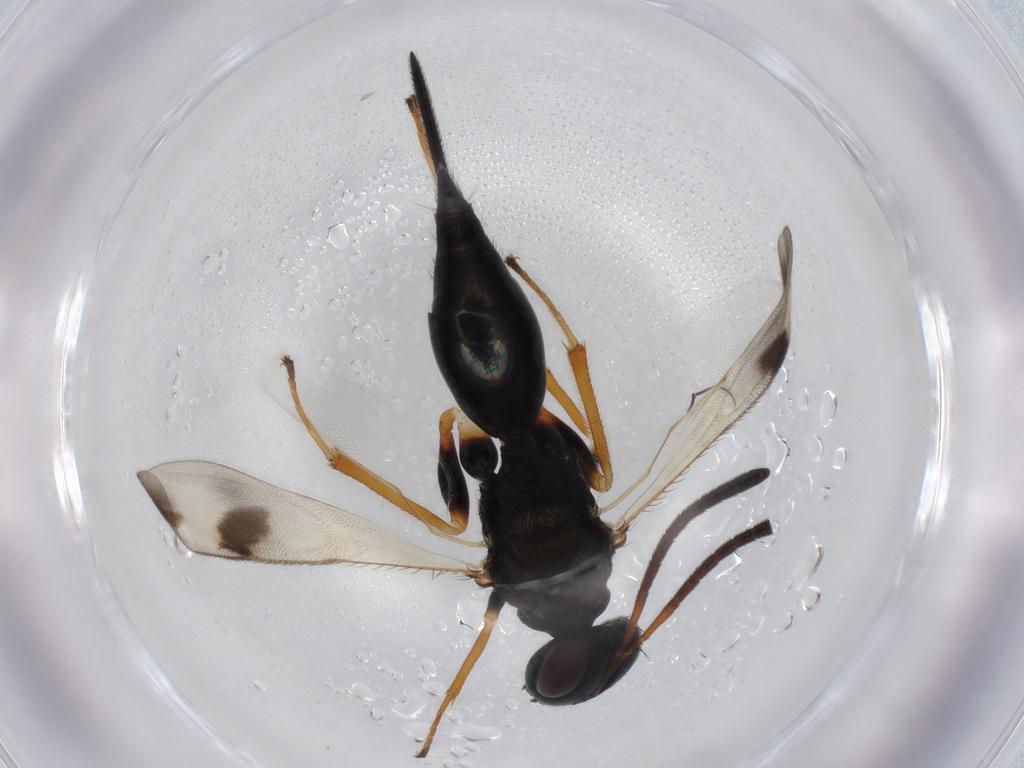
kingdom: Animalia
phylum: Arthropoda
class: Insecta
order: Hymenoptera
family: Diparidae
